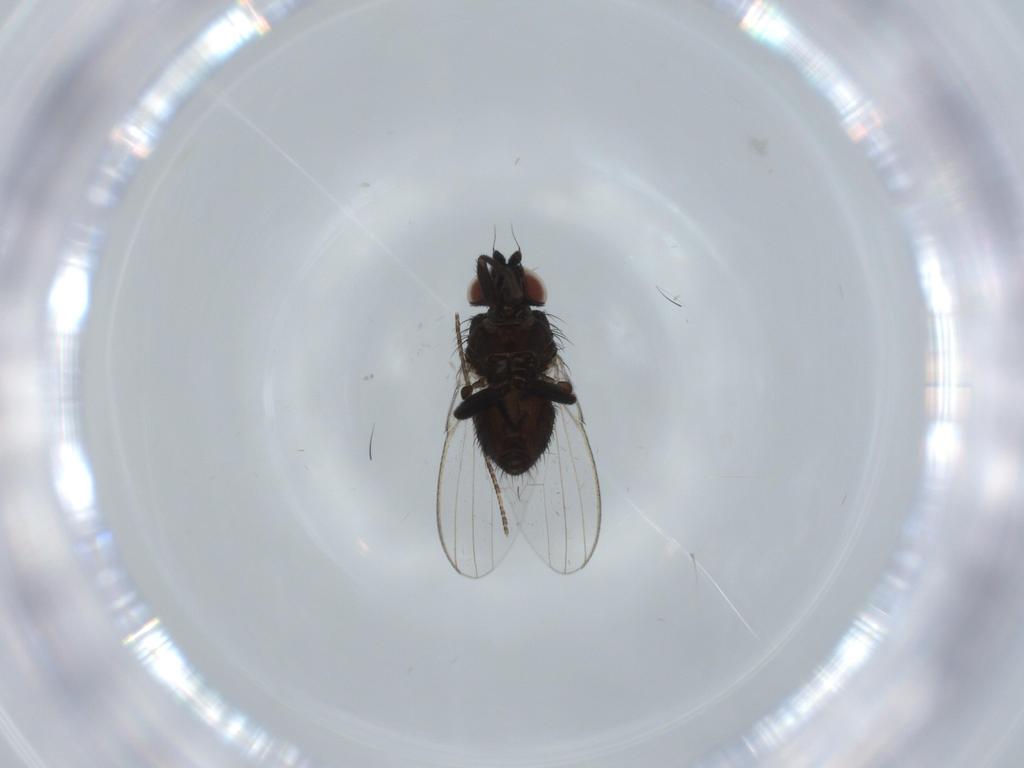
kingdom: Animalia
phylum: Arthropoda
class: Insecta
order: Diptera
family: Milichiidae
